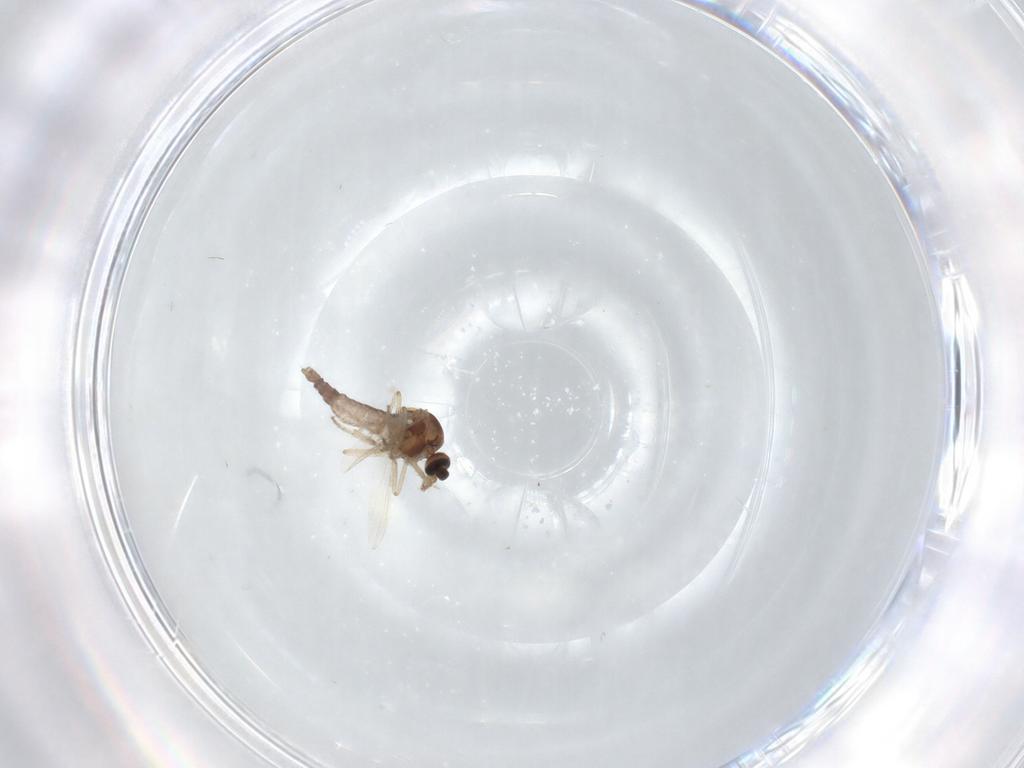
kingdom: Animalia
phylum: Arthropoda
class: Insecta
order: Diptera
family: Ceratopogonidae
